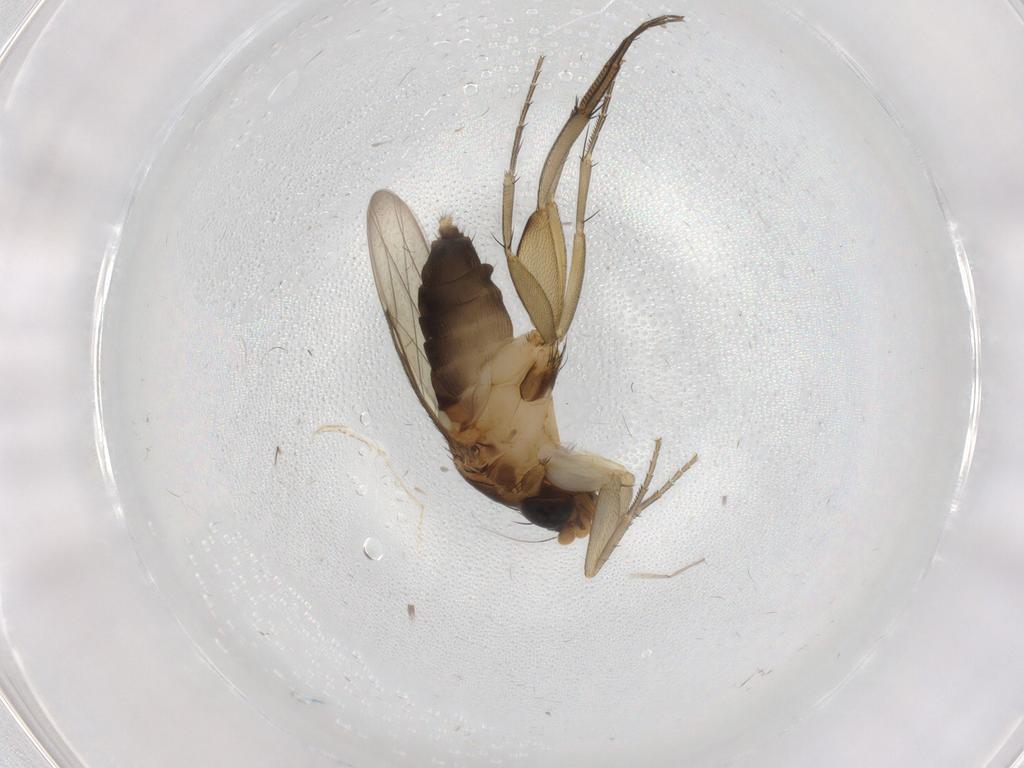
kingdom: Animalia
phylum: Arthropoda
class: Insecta
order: Diptera
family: Phoridae
